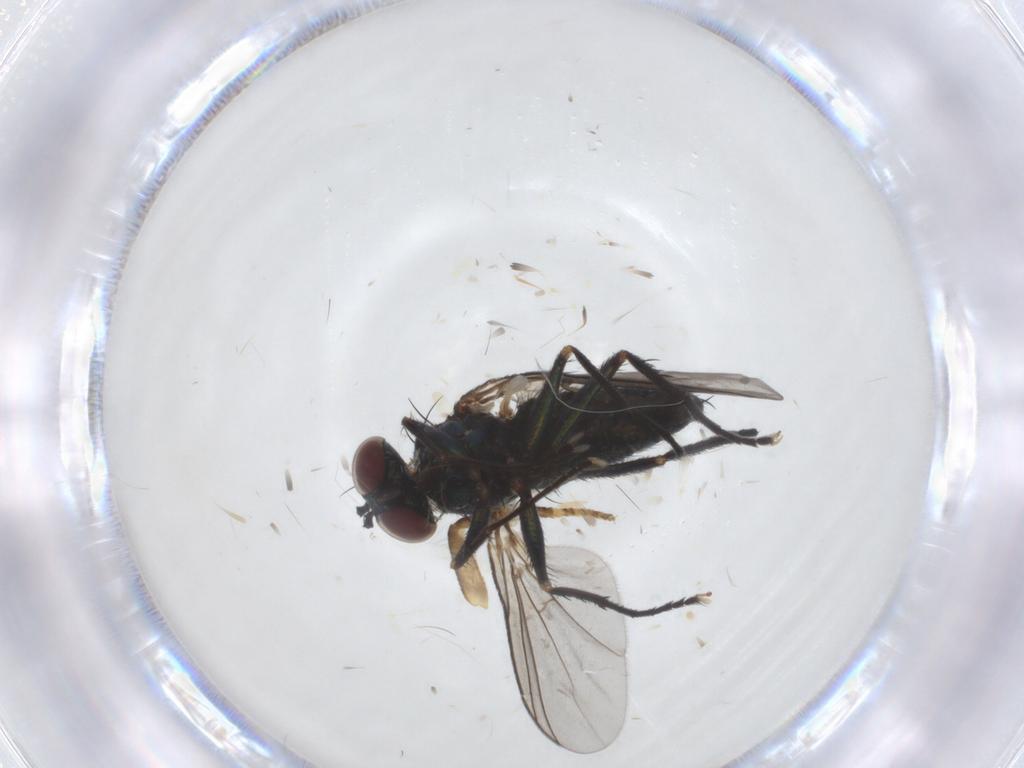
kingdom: Animalia
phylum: Arthropoda
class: Insecta
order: Diptera
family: Dolichopodidae
